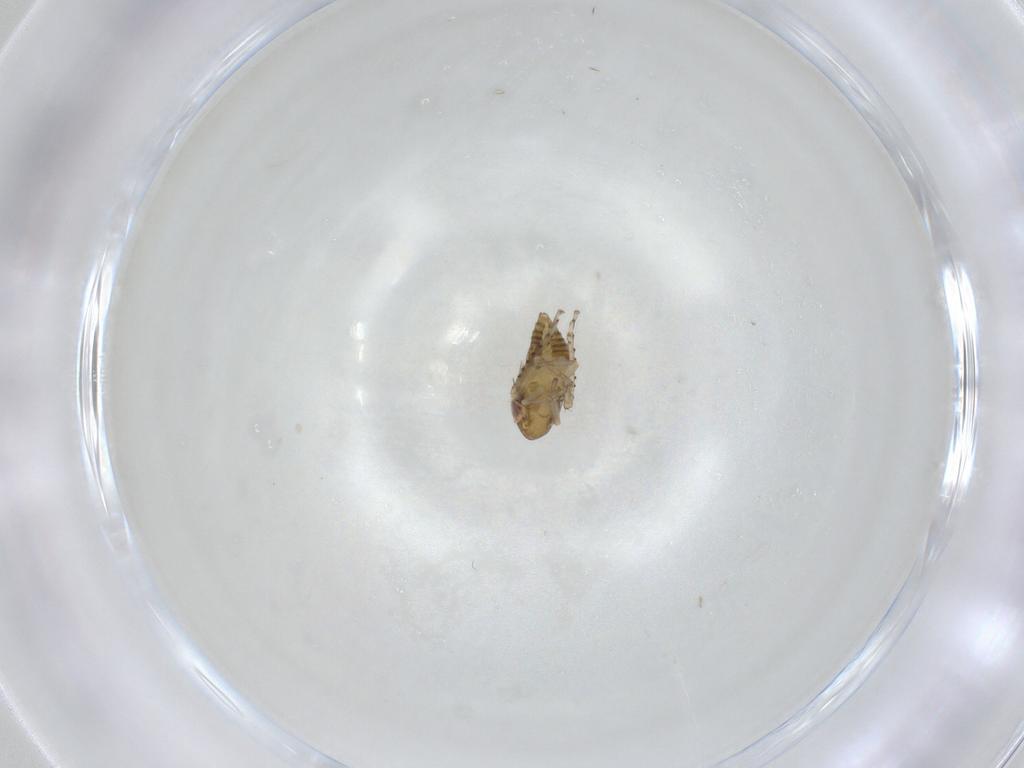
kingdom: Animalia
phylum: Arthropoda
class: Insecta
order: Hemiptera
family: Cicadellidae
